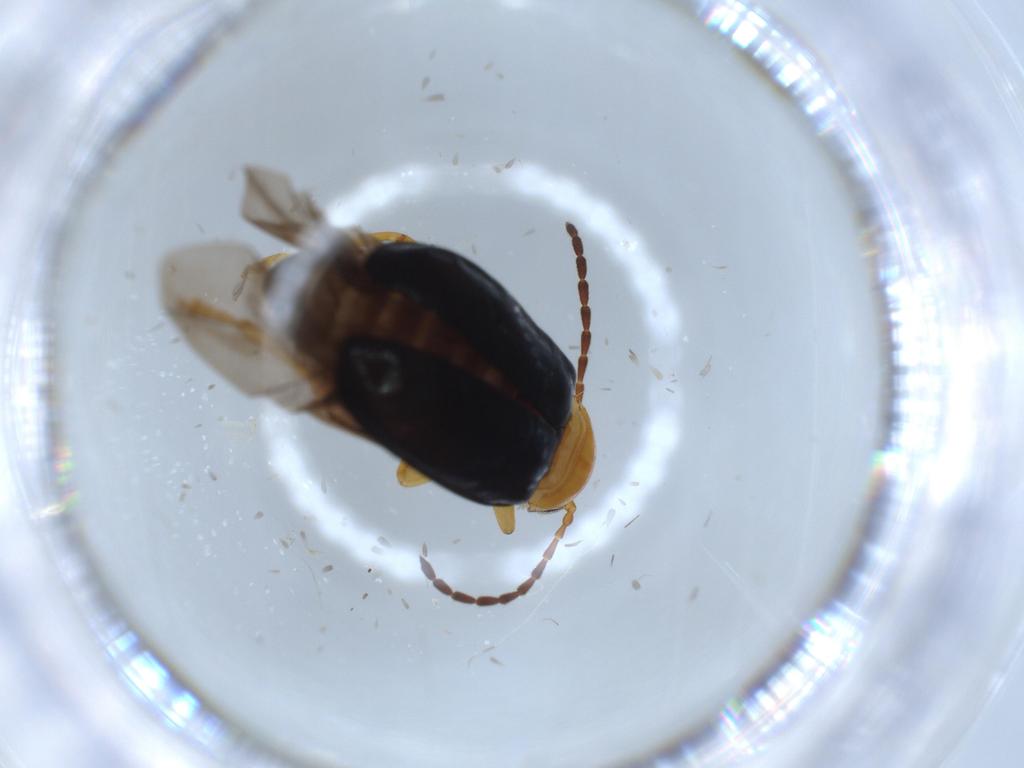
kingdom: Animalia
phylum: Arthropoda
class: Insecta
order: Coleoptera
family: Chrysomelidae
